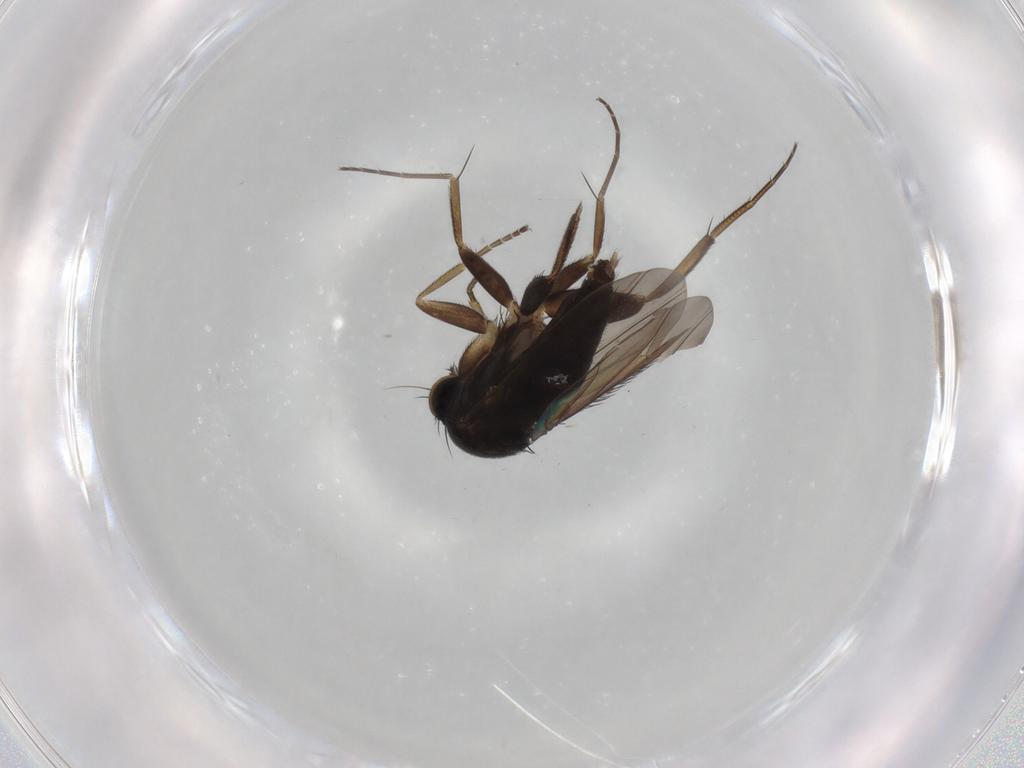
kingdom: Animalia
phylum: Arthropoda
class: Insecta
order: Diptera
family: Phoridae
